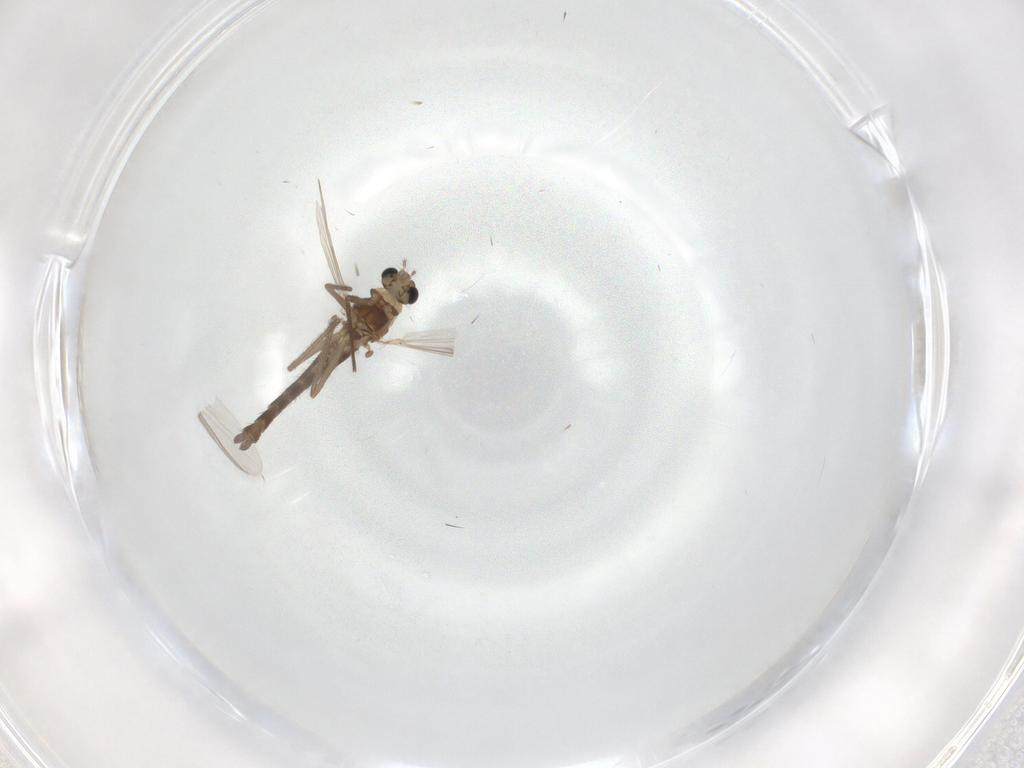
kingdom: Animalia
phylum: Arthropoda
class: Insecta
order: Diptera
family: Chironomidae
